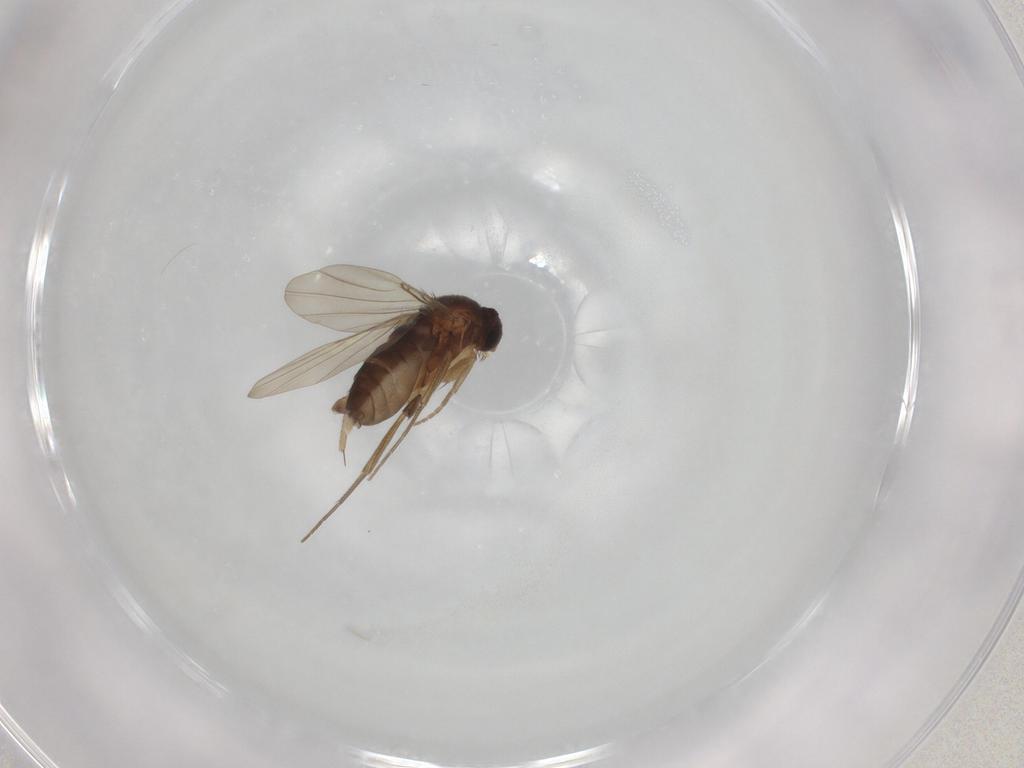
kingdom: Animalia
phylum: Arthropoda
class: Insecta
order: Diptera
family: Phoridae
